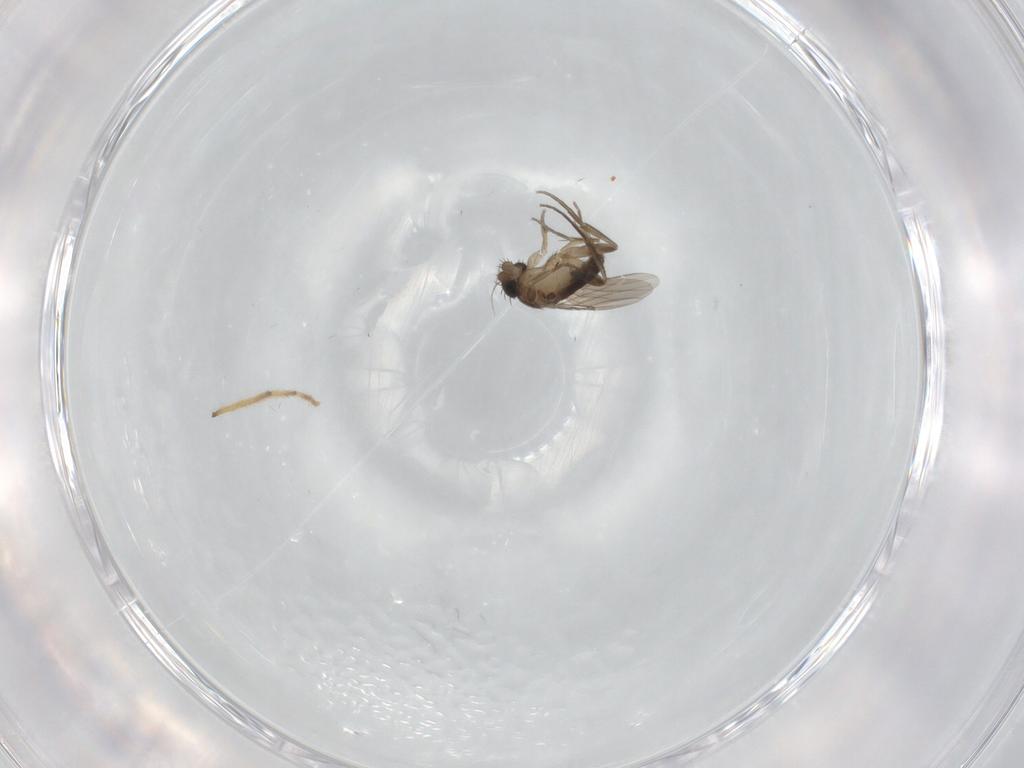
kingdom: Animalia
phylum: Arthropoda
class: Insecta
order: Diptera
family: Phoridae
